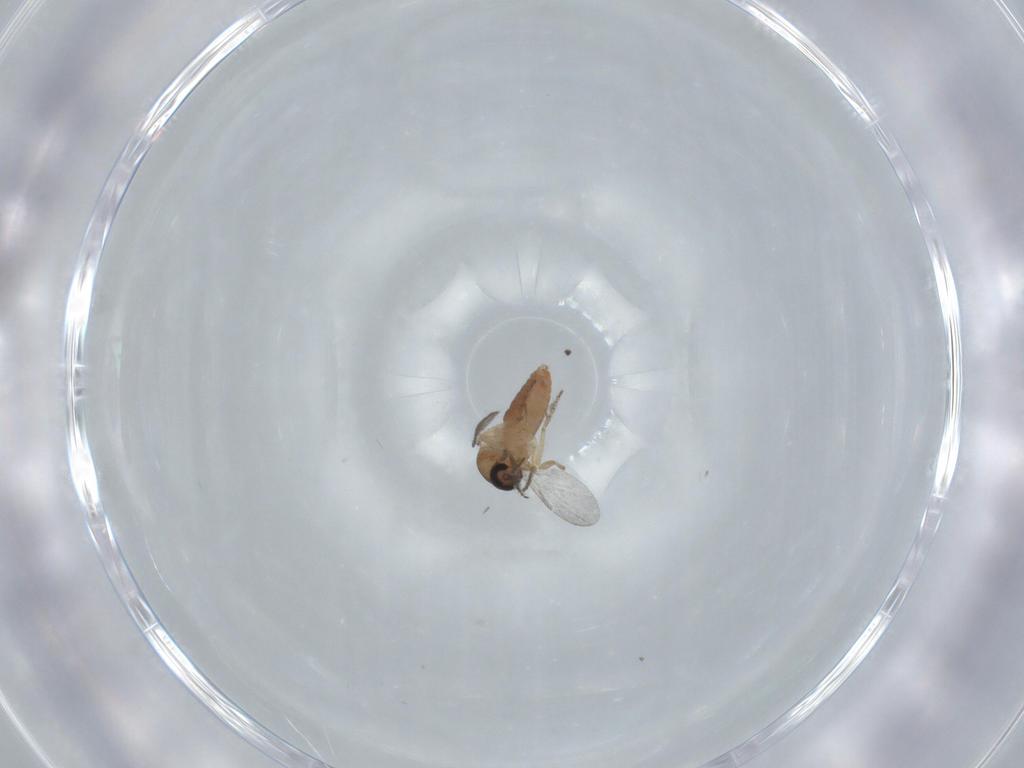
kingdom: Animalia
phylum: Arthropoda
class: Insecta
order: Diptera
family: Ceratopogonidae
